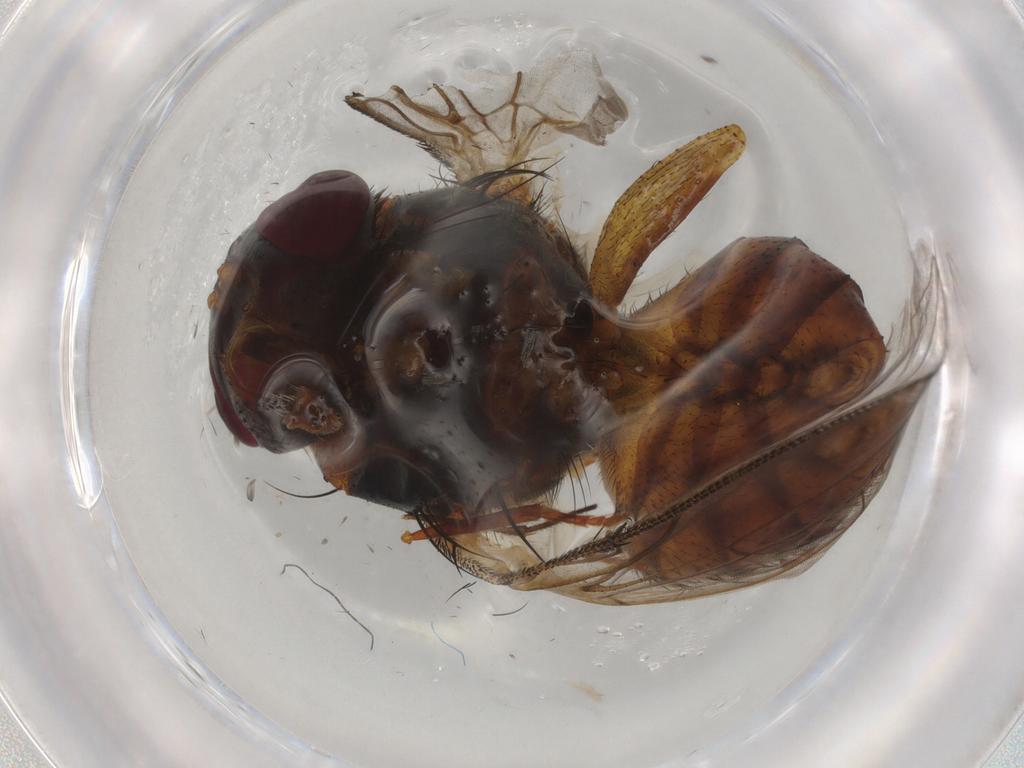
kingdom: Animalia
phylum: Arthropoda
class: Insecta
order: Diptera
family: Calliphoridae
